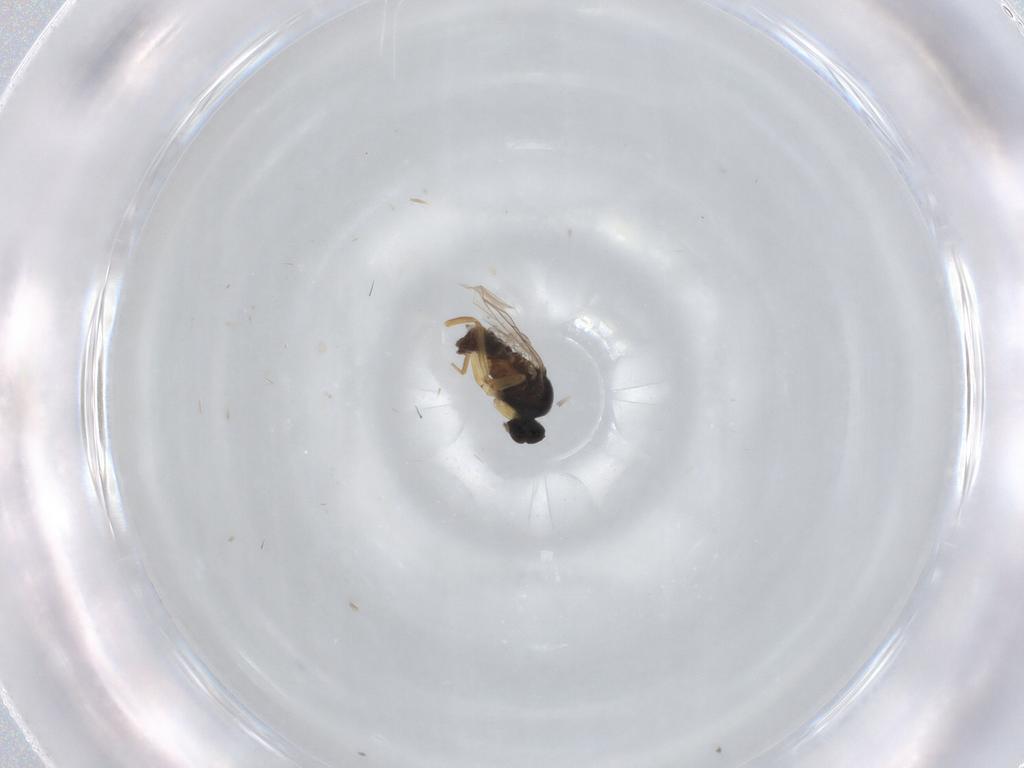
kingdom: Animalia
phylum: Arthropoda
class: Insecta
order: Diptera
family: Hybotidae
